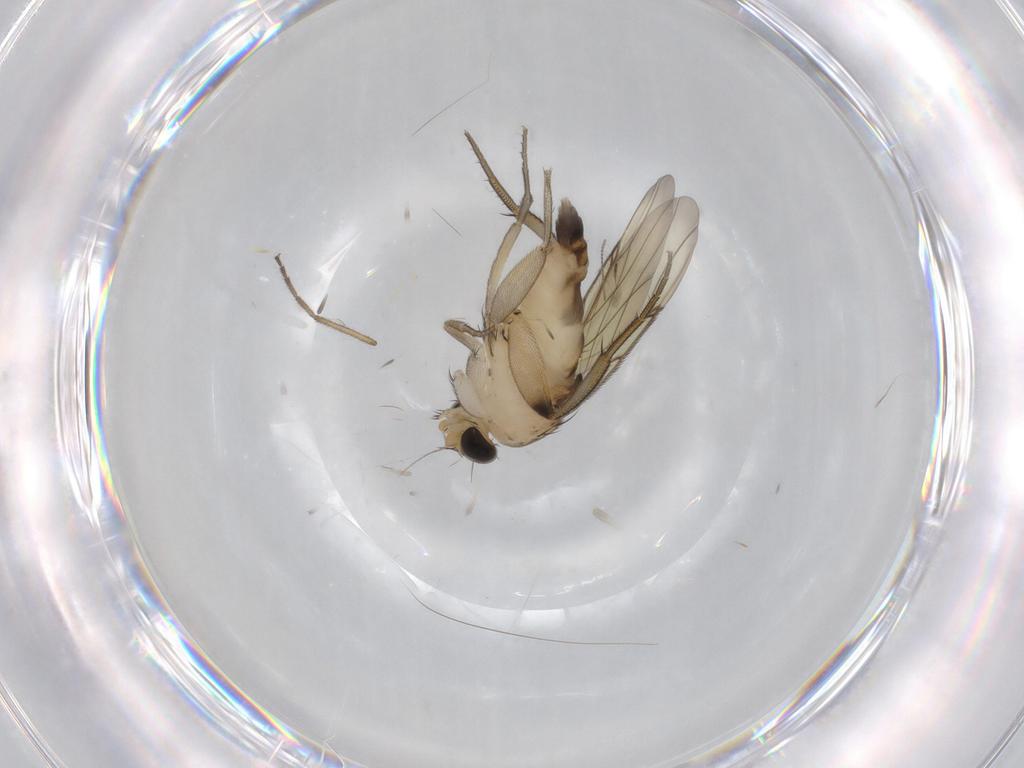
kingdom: Animalia
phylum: Arthropoda
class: Insecta
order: Diptera
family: Phoridae
